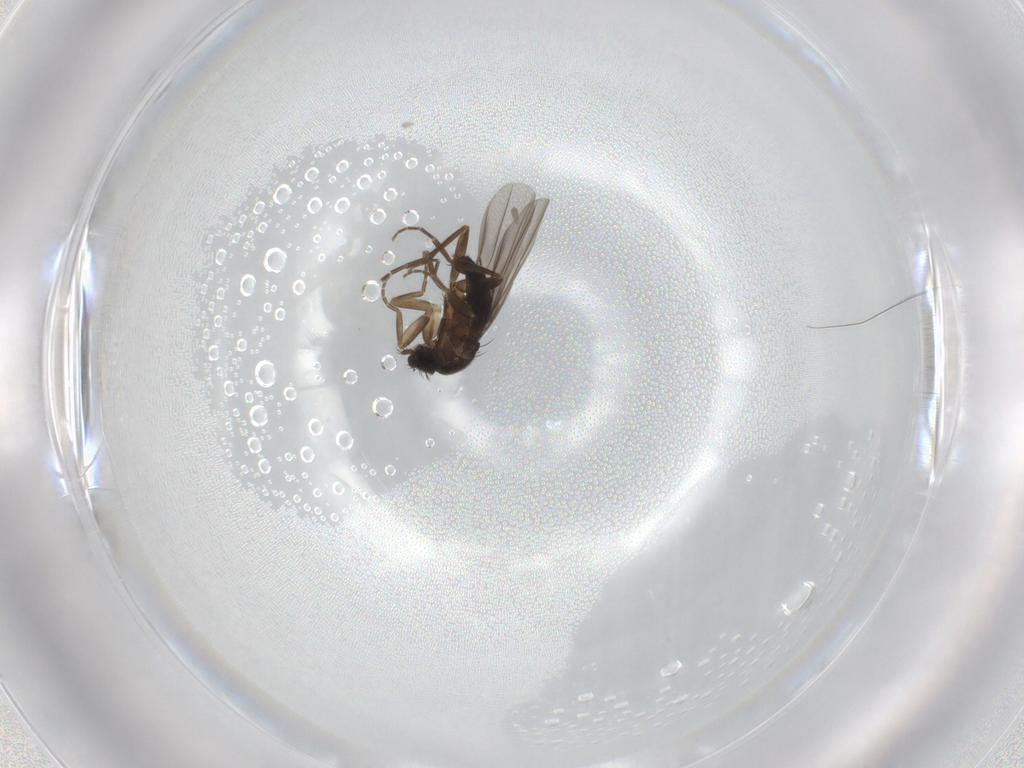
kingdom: Animalia
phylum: Arthropoda
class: Insecta
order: Diptera
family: Phoridae
